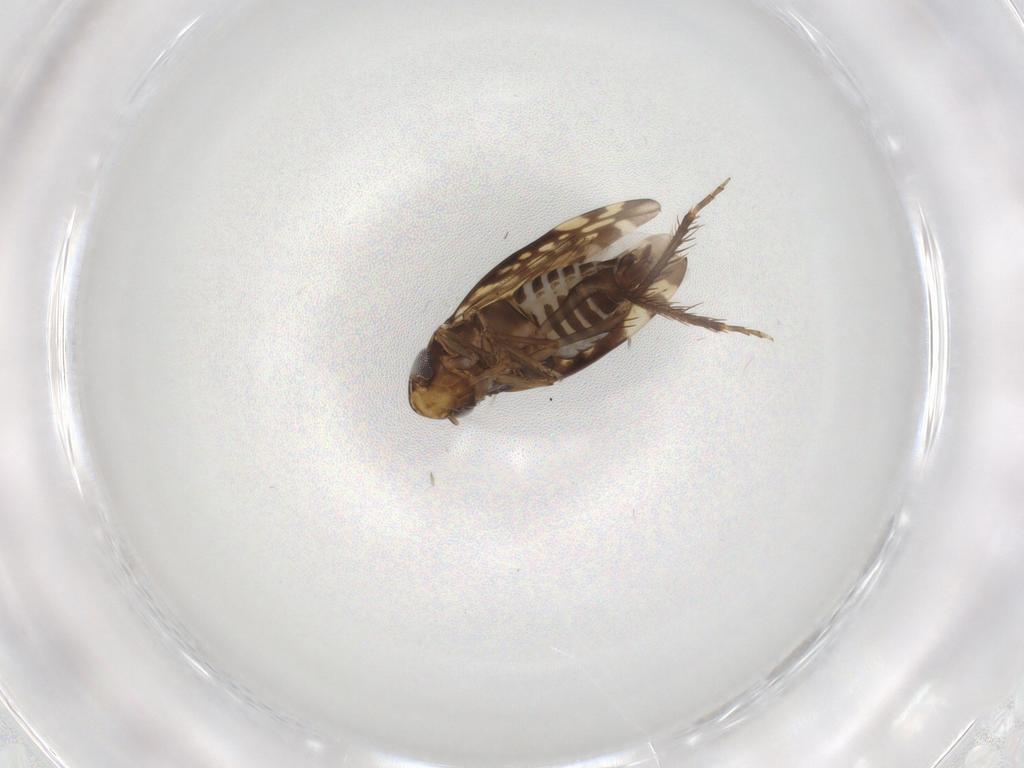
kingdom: Animalia
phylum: Arthropoda
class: Insecta
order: Hemiptera
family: Cicadellidae
